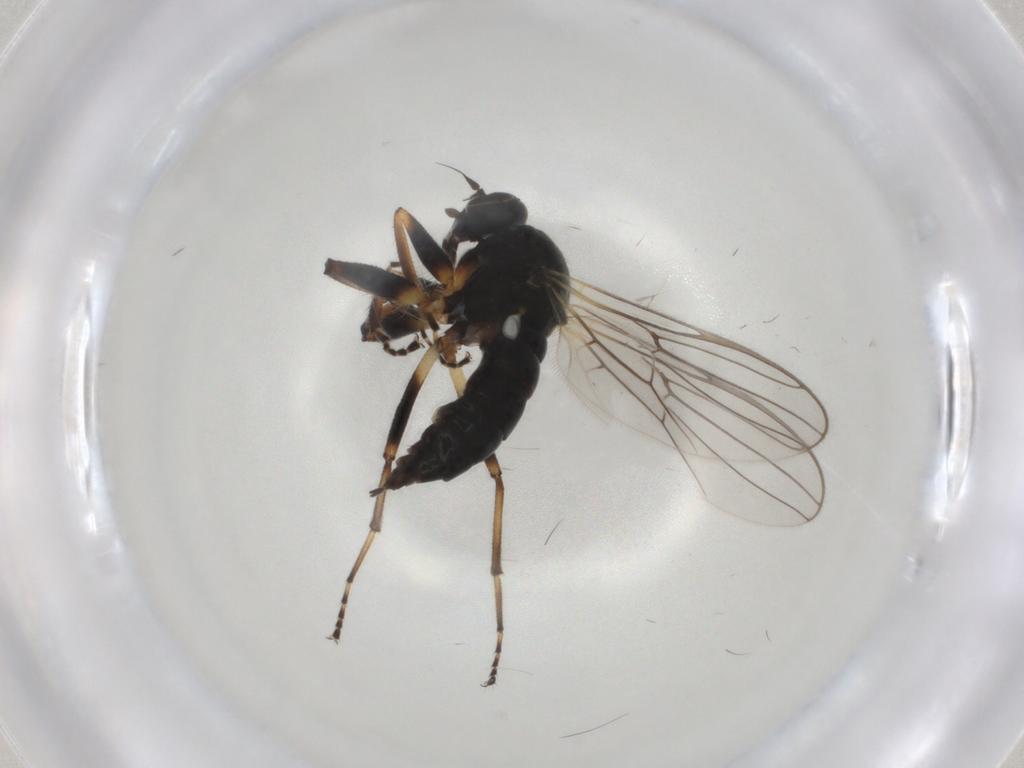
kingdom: Animalia
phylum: Arthropoda
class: Insecta
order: Diptera
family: Hybotidae
